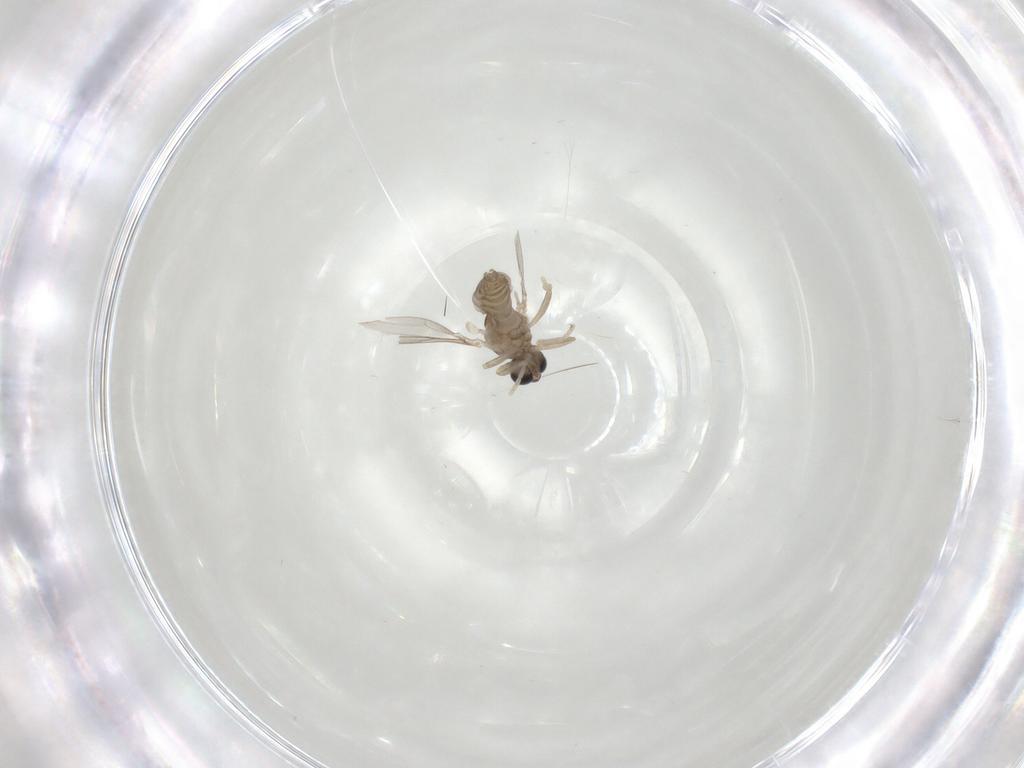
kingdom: Animalia
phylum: Arthropoda
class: Insecta
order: Diptera
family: Cecidomyiidae
